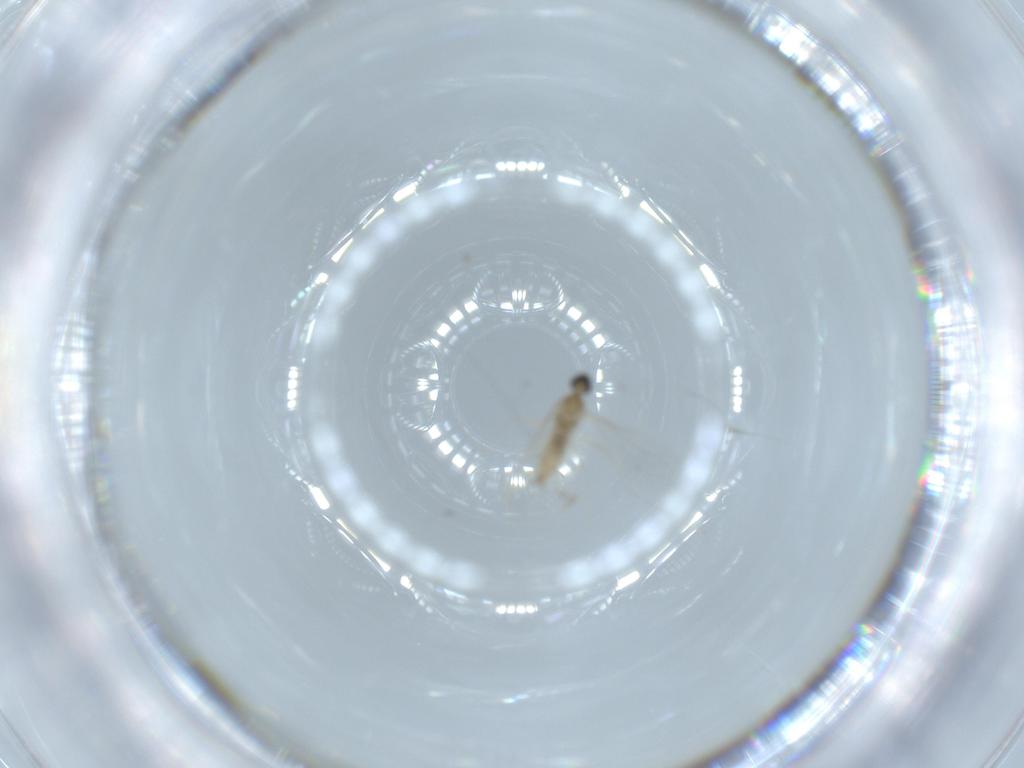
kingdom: Animalia
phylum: Arthropoda
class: Insecta
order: Diptera
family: Cecidomyiidae
